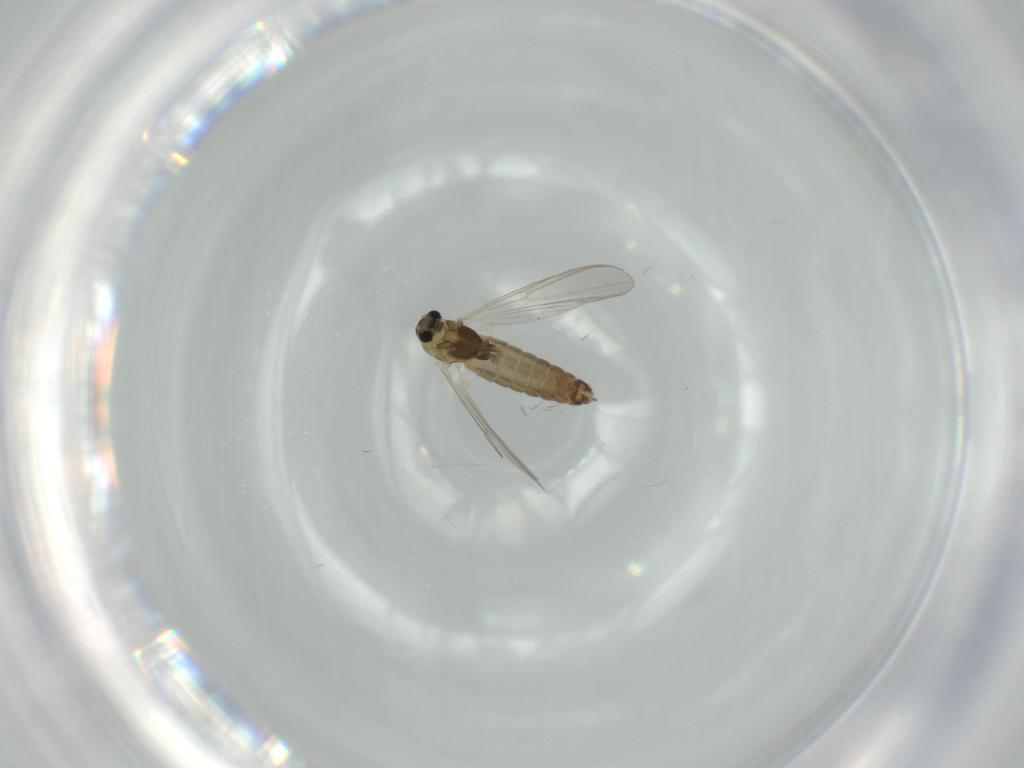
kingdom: Animalia
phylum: Arthropoda
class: Insecta
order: Diptera
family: Chironomidae
